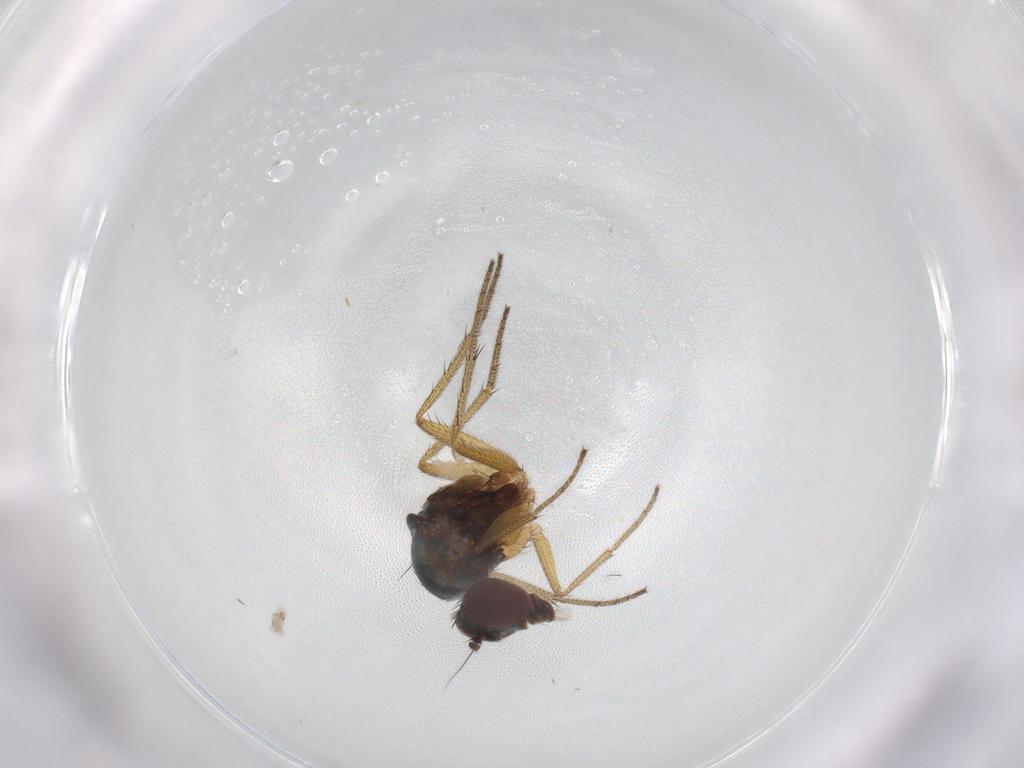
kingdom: Animalia
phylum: Arthropoda
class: Insecta
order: Diptera
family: Drosophilidae
